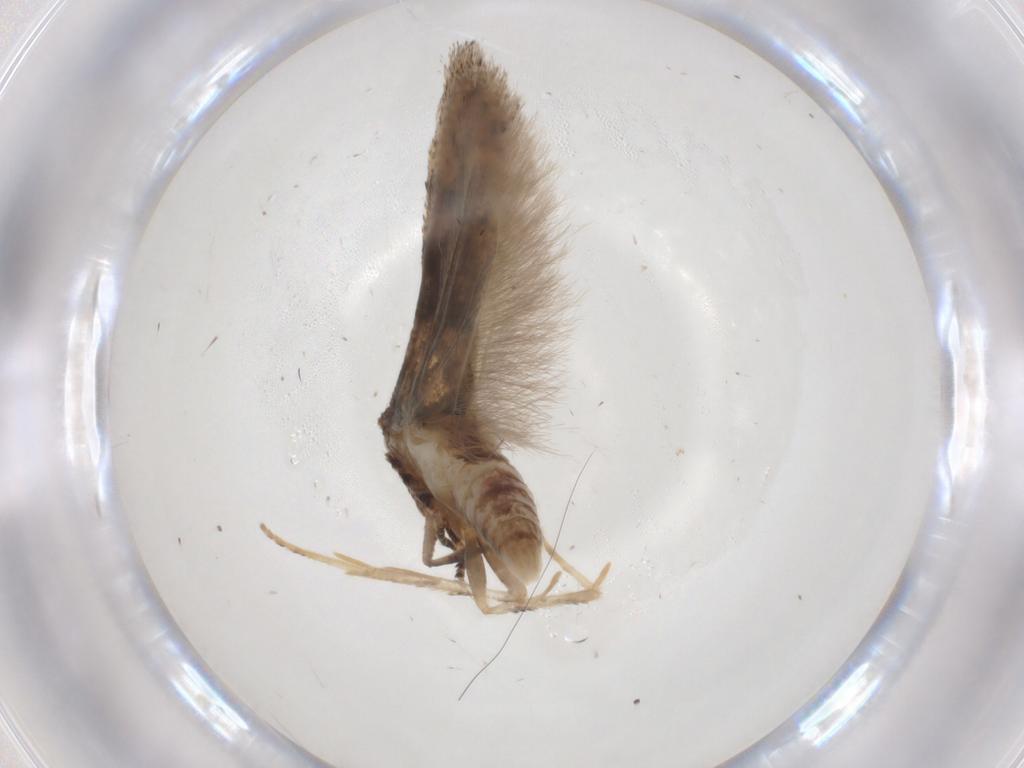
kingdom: Animalia
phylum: Arthropoda
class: Insecta
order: Lepidoptera
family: Gelechiidae
